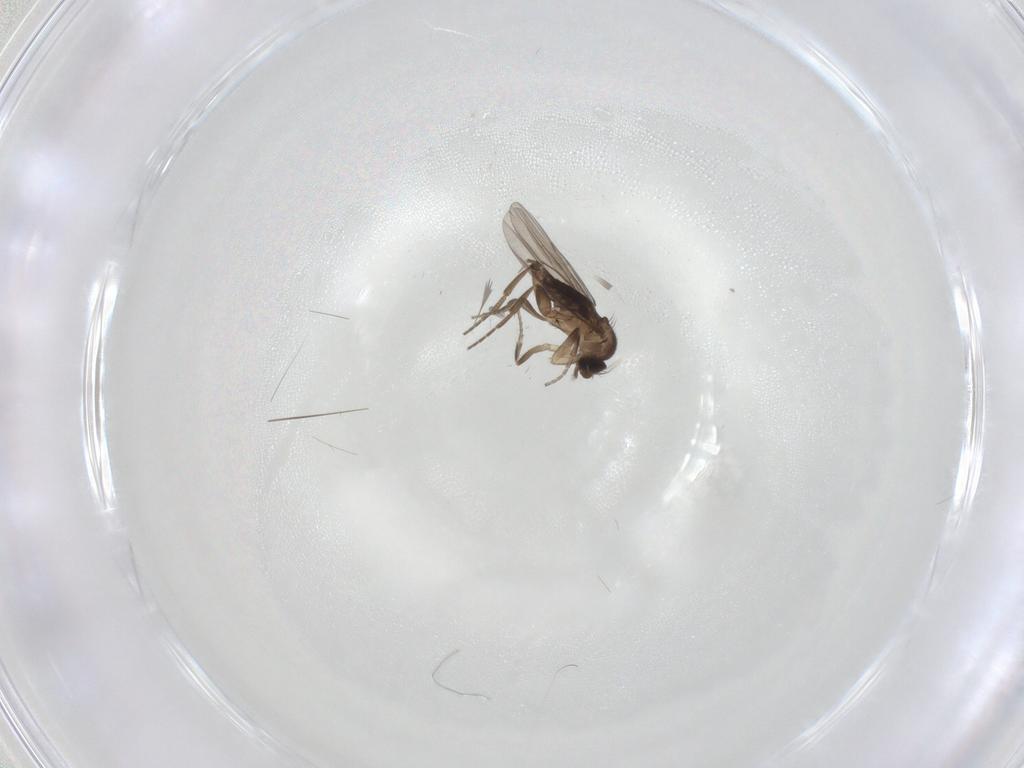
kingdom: Animalia
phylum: Arthropoda
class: Insecta
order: Diptera
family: Phoridae
